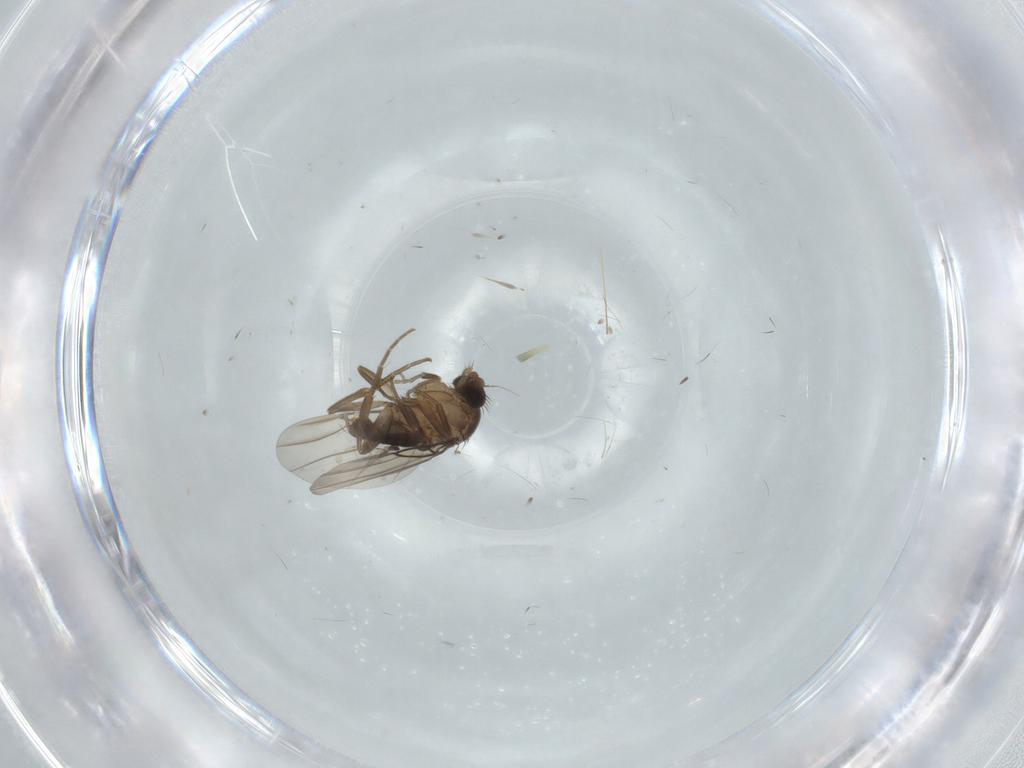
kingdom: Animalia
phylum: Arthropoda
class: Insecta
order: Diptera
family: Phoridae
